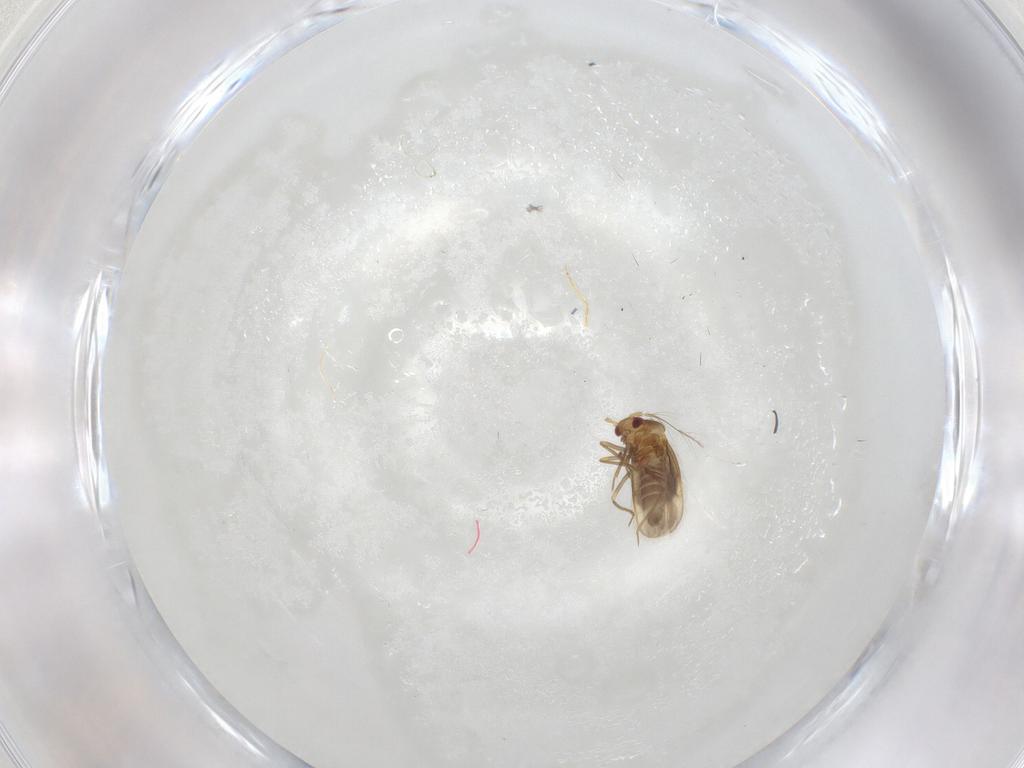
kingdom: Animalia
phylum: Arthropoda
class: Insecta
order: Hemiptera
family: Schizopteridae
